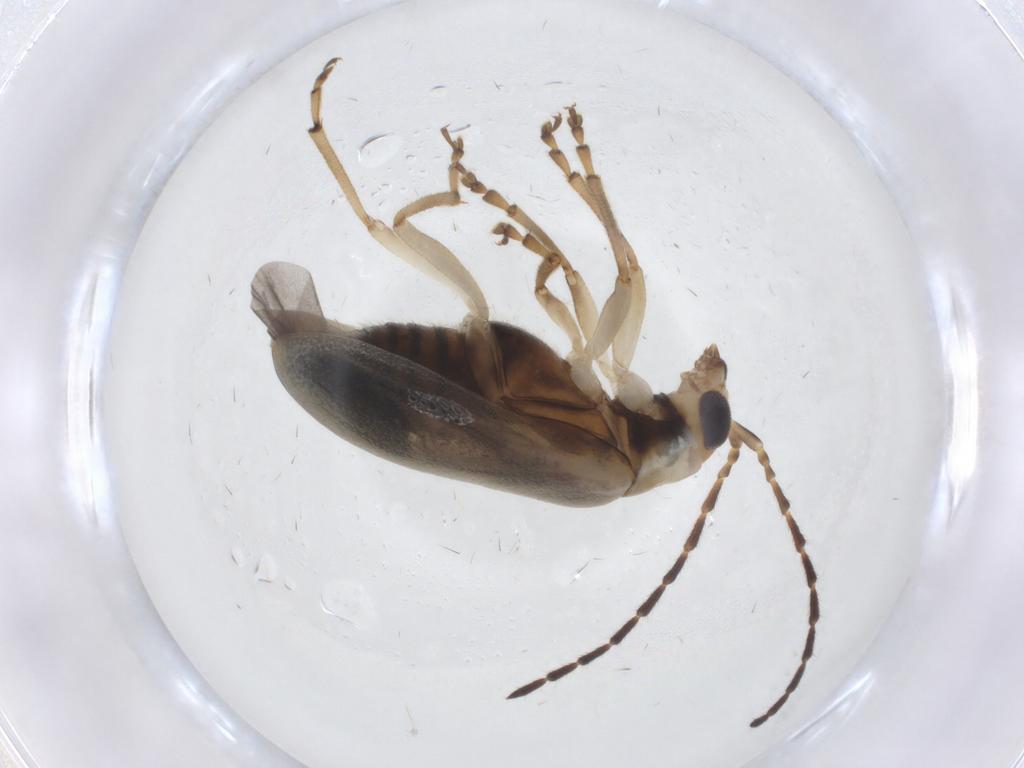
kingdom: Animalia
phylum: Arthropoda
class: Insecta
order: Coleoptera
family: Chrysomelidae
